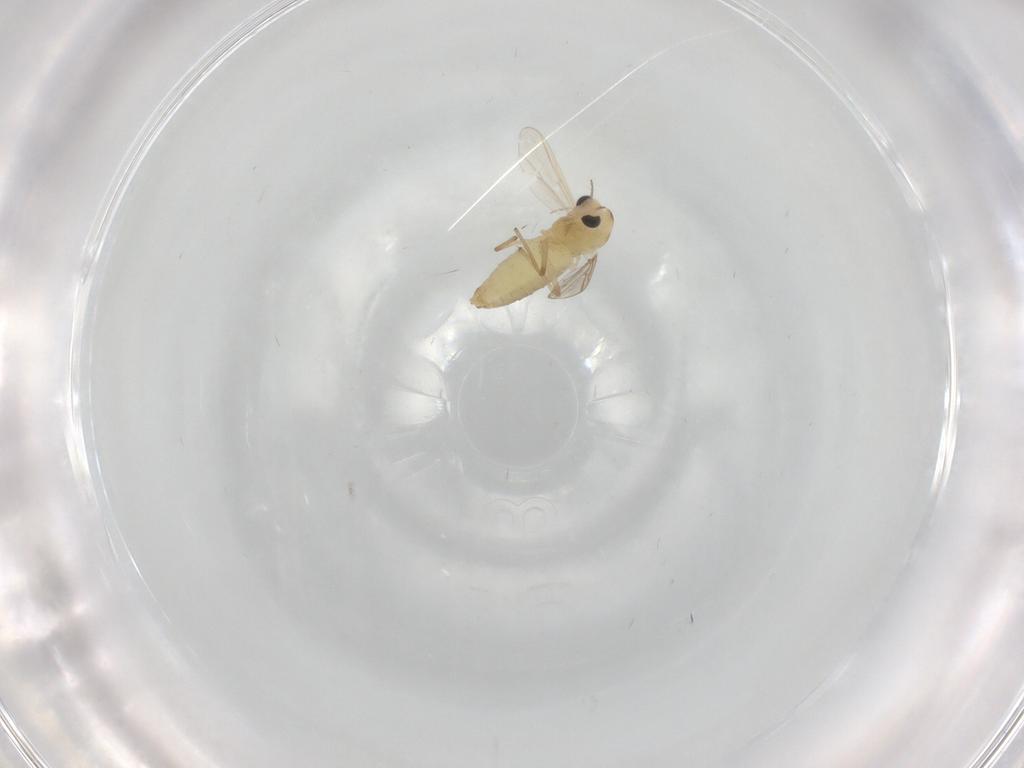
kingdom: Animalia
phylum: Arthropoda
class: Insecta
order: Diptera
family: Chironomidae
